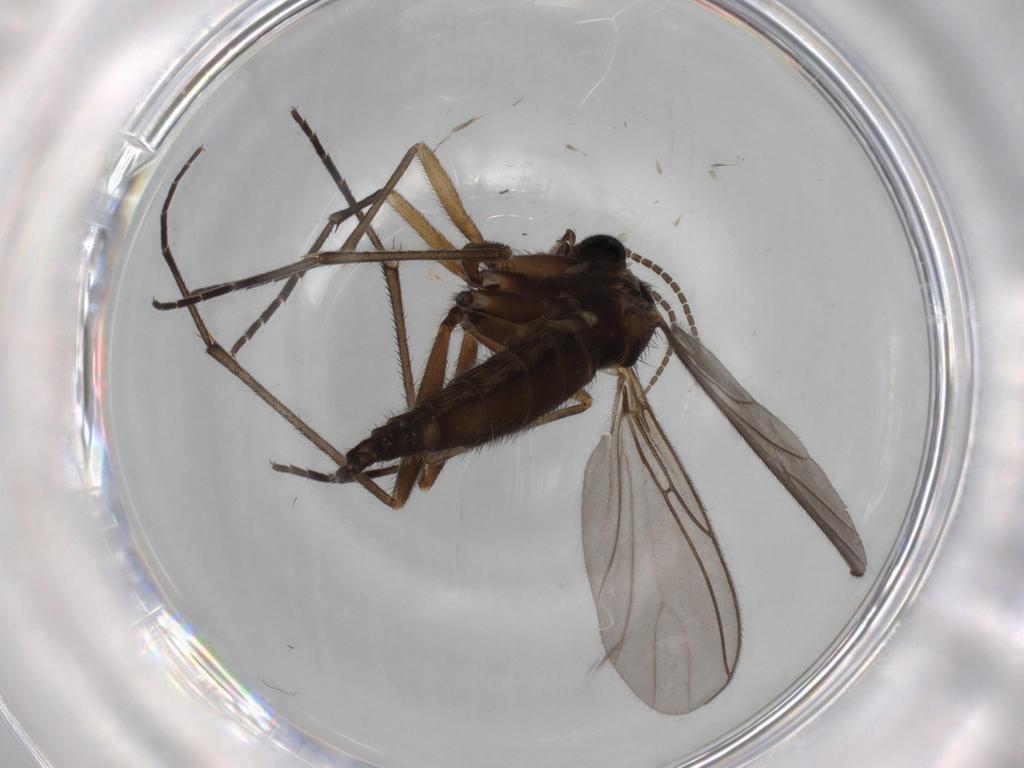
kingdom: Animalia
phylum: Arthropoda
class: Insecta
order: Diptera
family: Sciaridae
